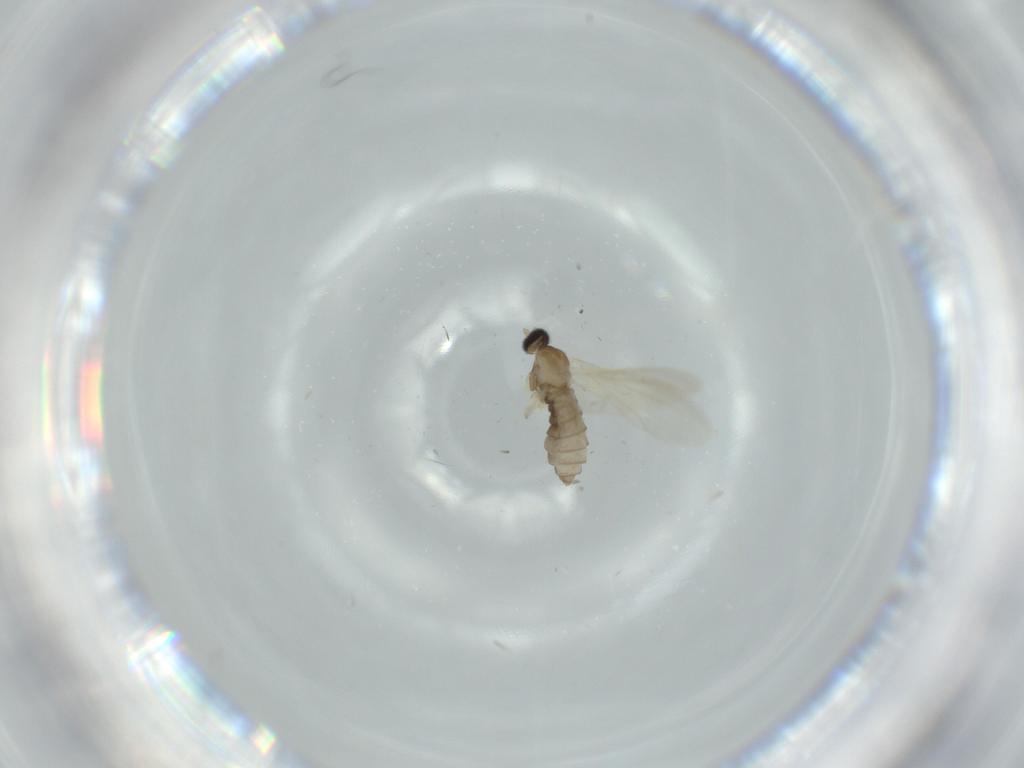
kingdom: Animalia
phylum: Arthropoda
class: Insecta
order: Diptera
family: Cecidomyiidae
